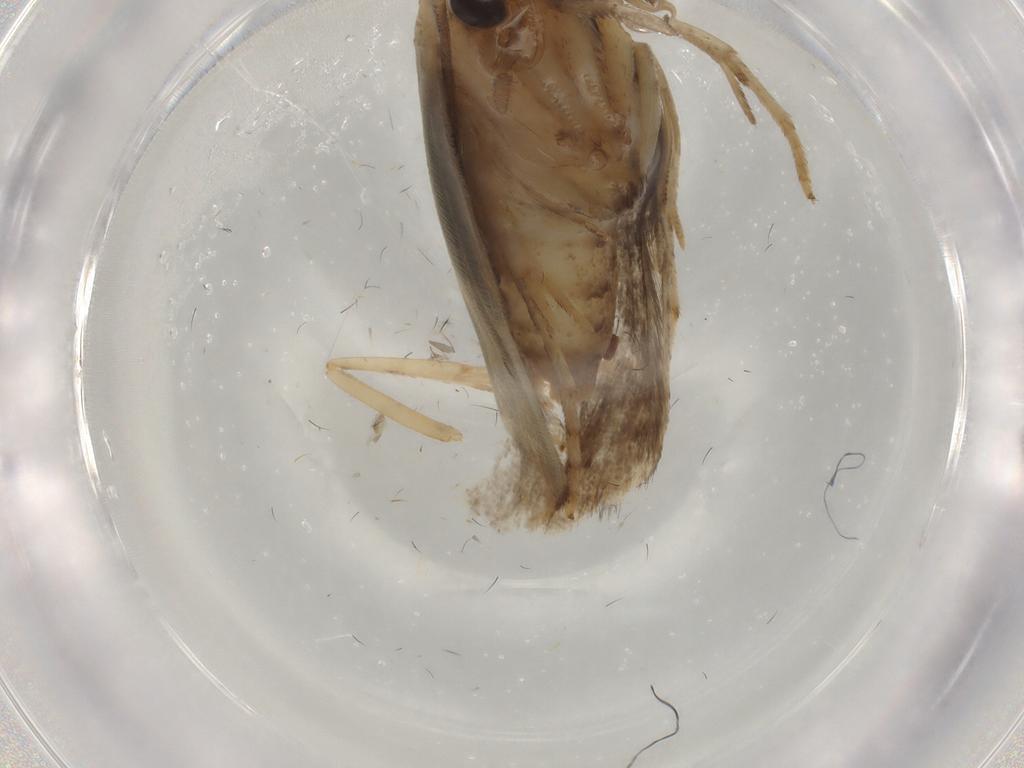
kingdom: Animalia
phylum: Arthropoda
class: Insecta
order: Lepidoptera
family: Yponomeutidae
